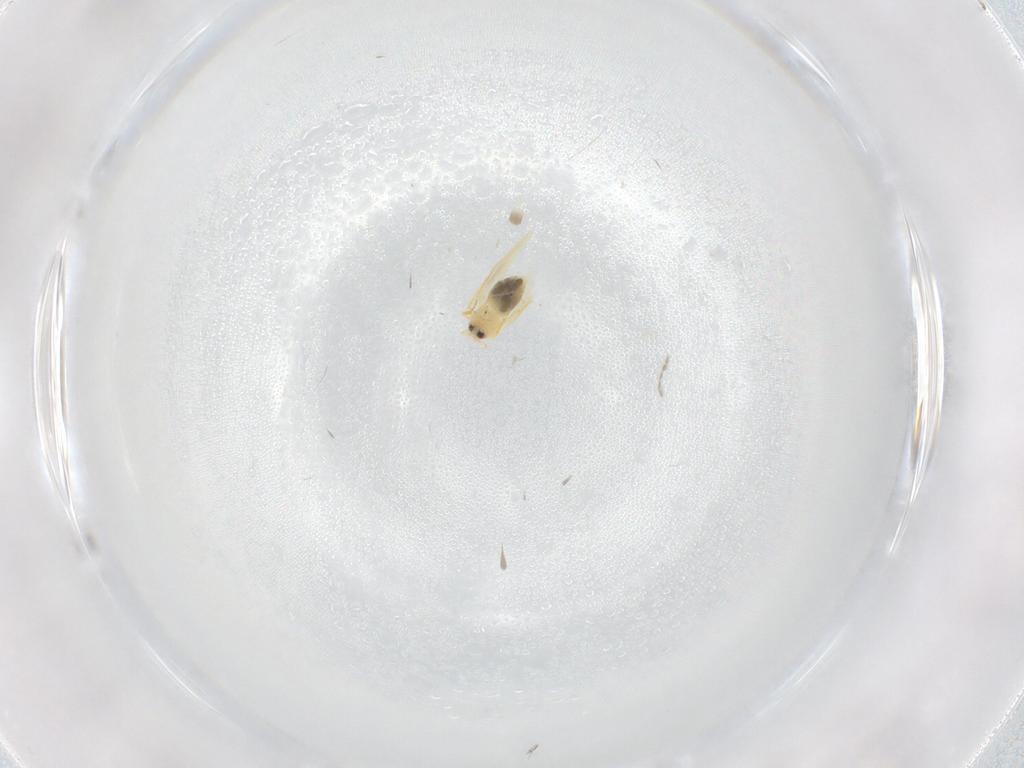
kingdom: Animalia
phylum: Arthropoda
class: Insecta
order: Hemiptera
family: Aleyrodidae
